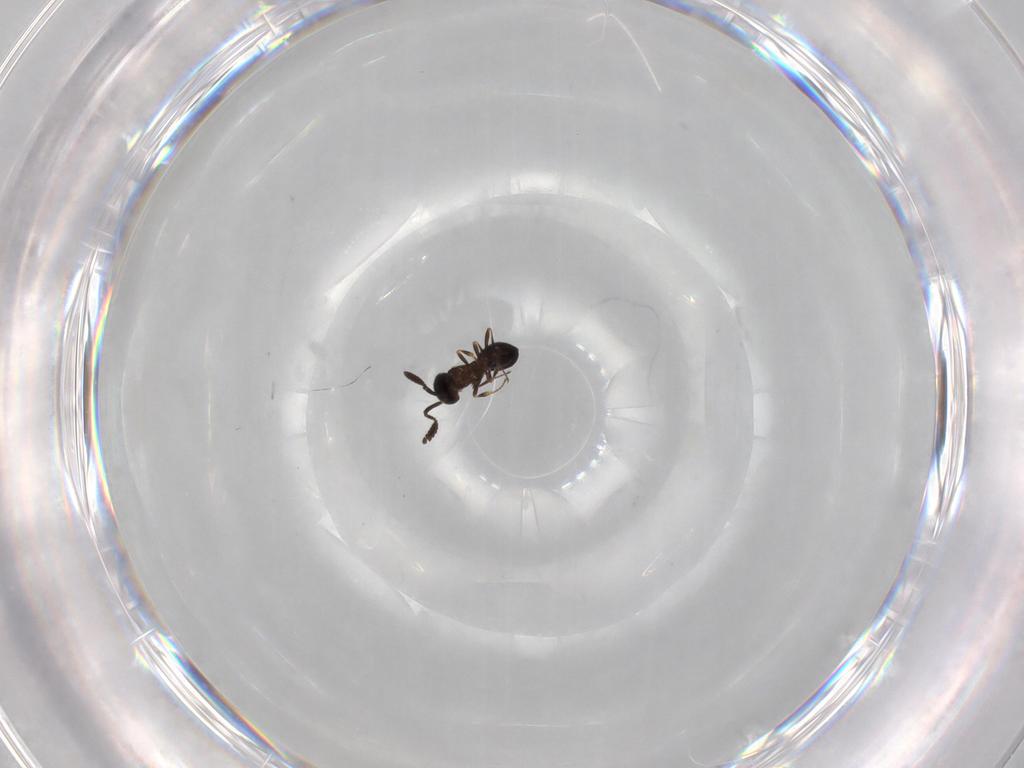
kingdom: Animalia
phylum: Arthropoda
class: Insecta
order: Hymenoptera
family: Scelionidae
